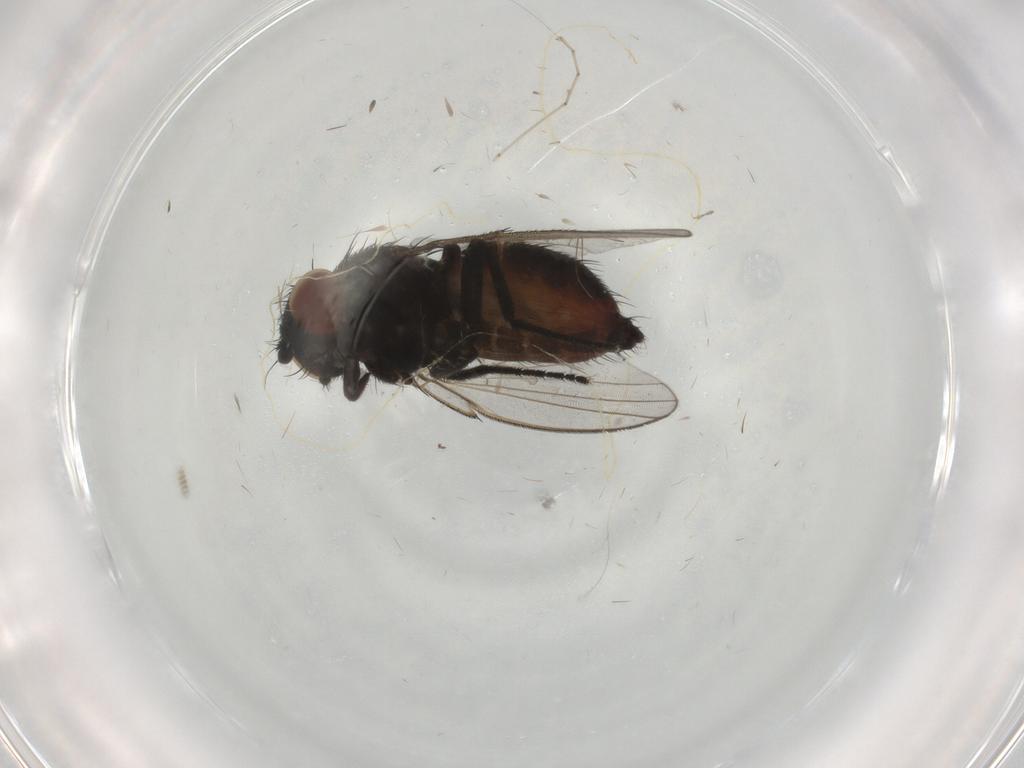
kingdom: Animalia
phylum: Arthropoda
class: Insecta
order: Diptera
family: Milichiidae
